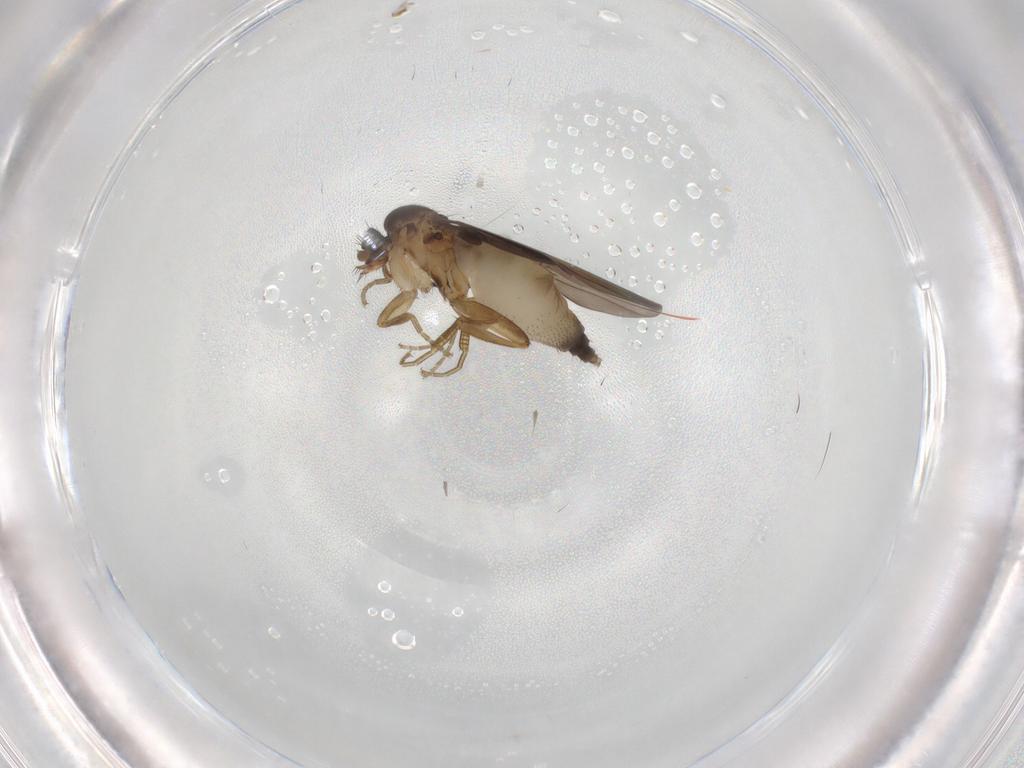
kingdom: Animalia
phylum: Arthropoda
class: Insecta
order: Diptera
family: Phoridae
